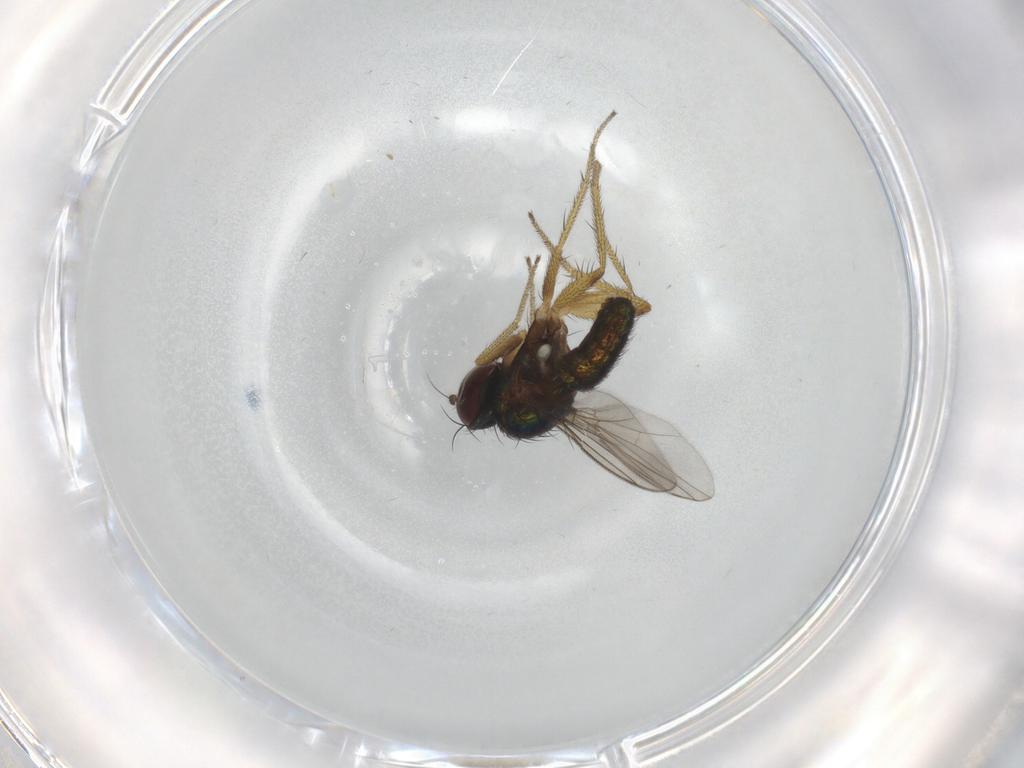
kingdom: Animalia
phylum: Arthropoda
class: Insecta
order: Diptera
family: Dolichopodidae
